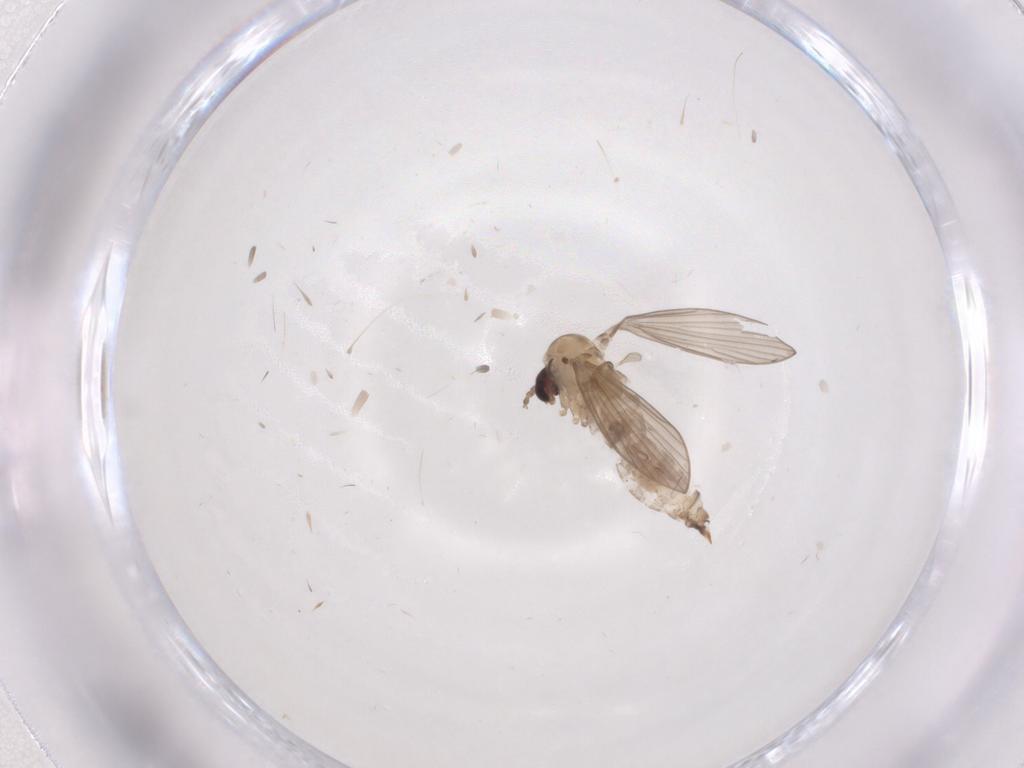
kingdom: Animalia
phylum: Arthropoda
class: Insecta
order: Diptera
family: Psychodidae
